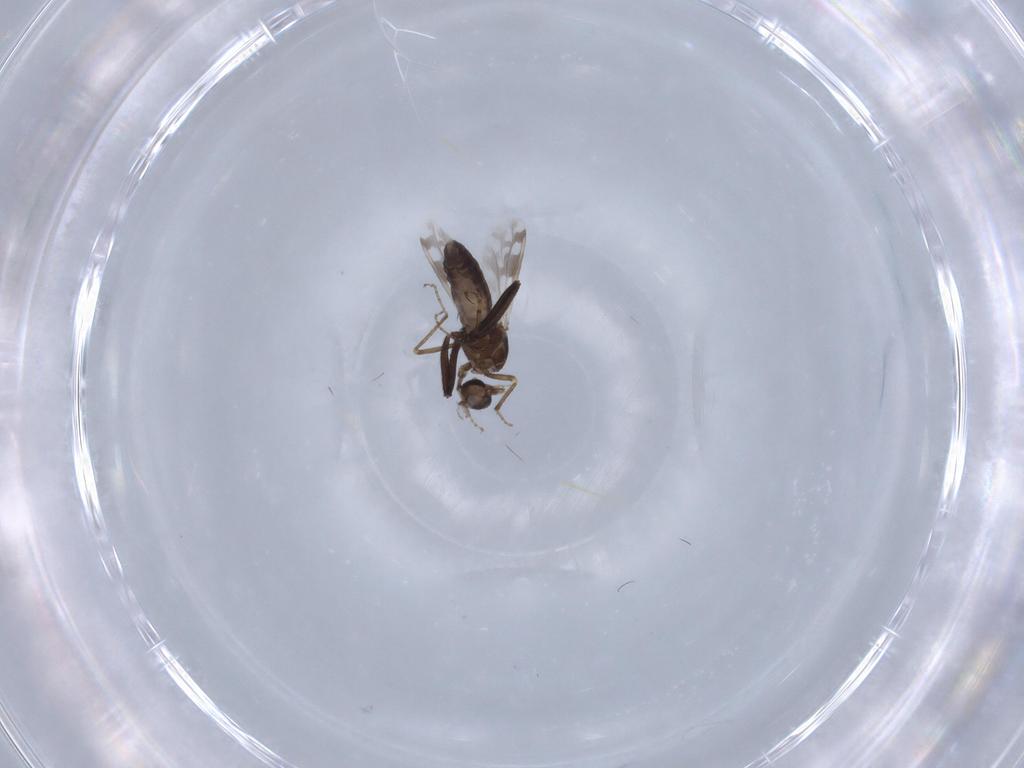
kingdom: Animalia
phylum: Arthropoda
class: Insecta
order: Diptera
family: Ceratopogonidae
